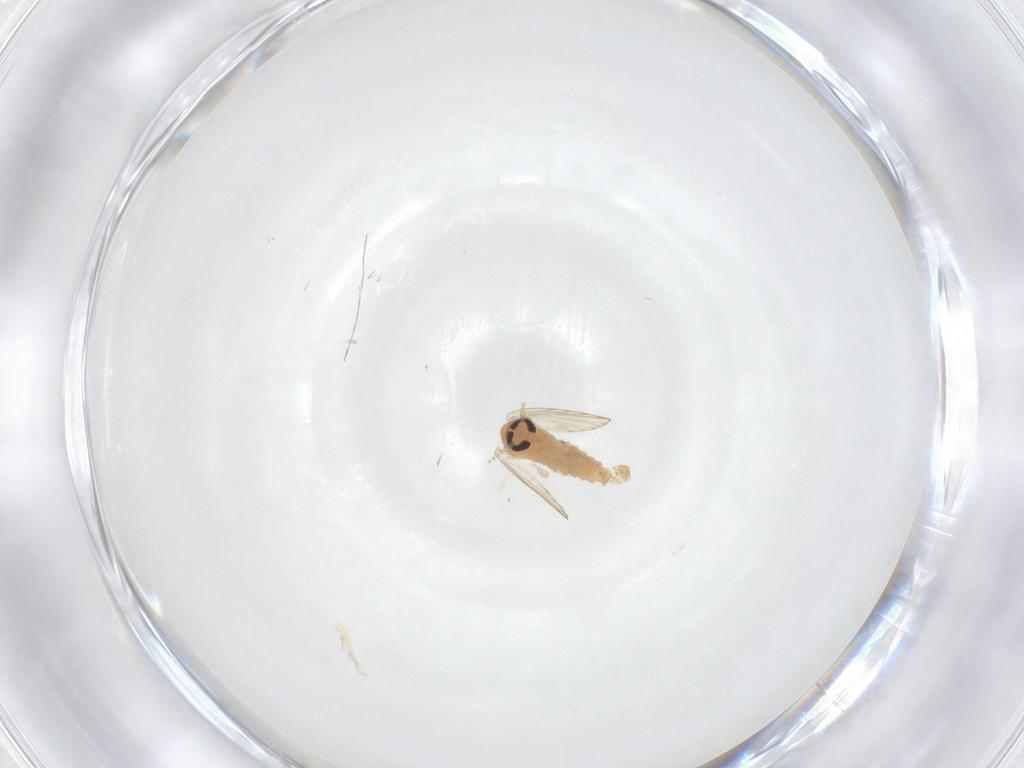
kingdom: Animalia
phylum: Arthropoda
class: Insecta
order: Diptera
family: Psychodidae
